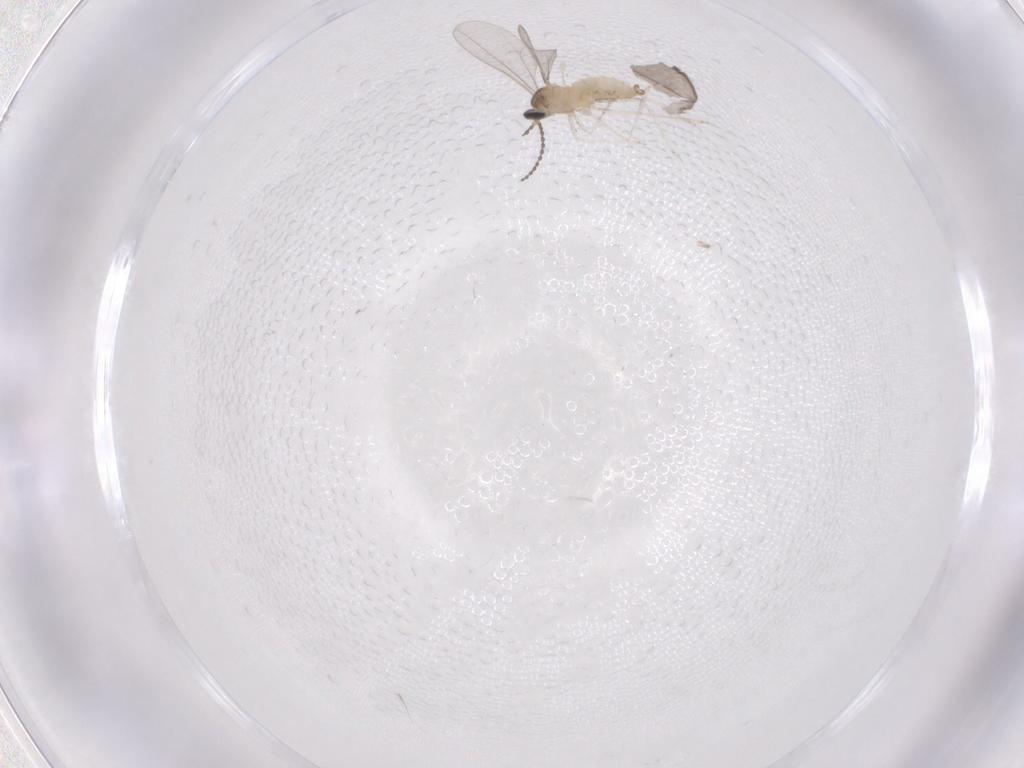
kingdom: Animalia
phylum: Arthropoda
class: Insecta
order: Diptera
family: Cecidomyiidae
